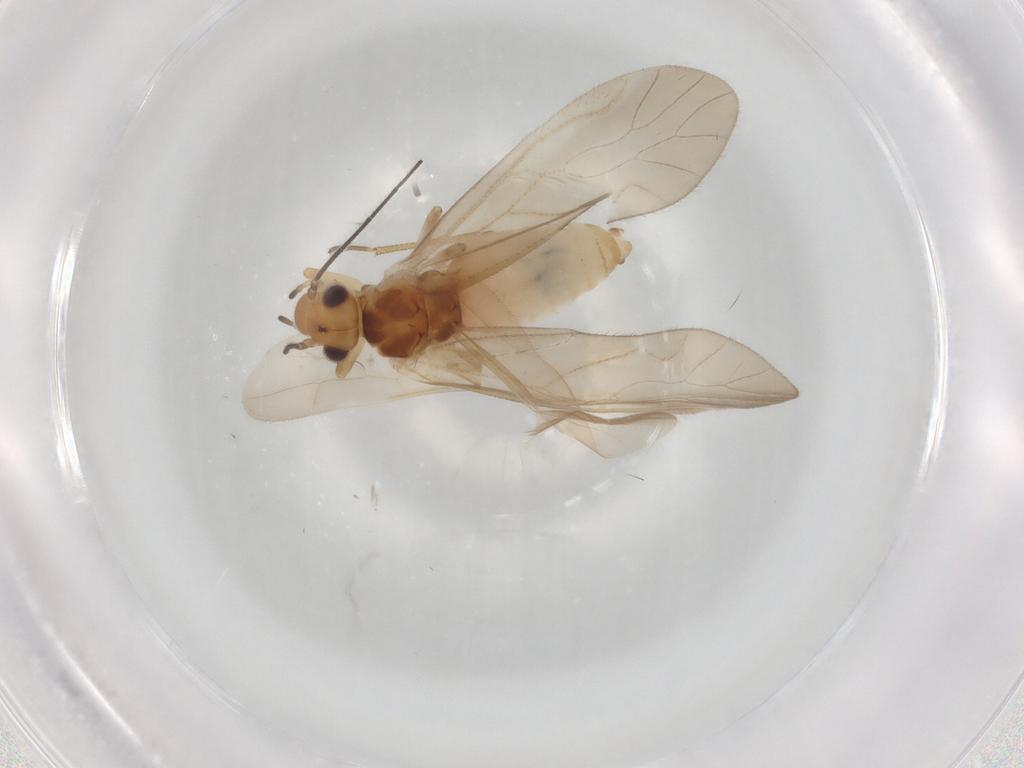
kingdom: Animalia
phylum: Arthropoda
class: Insecta
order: Psocodea
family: Caeciliusidae
